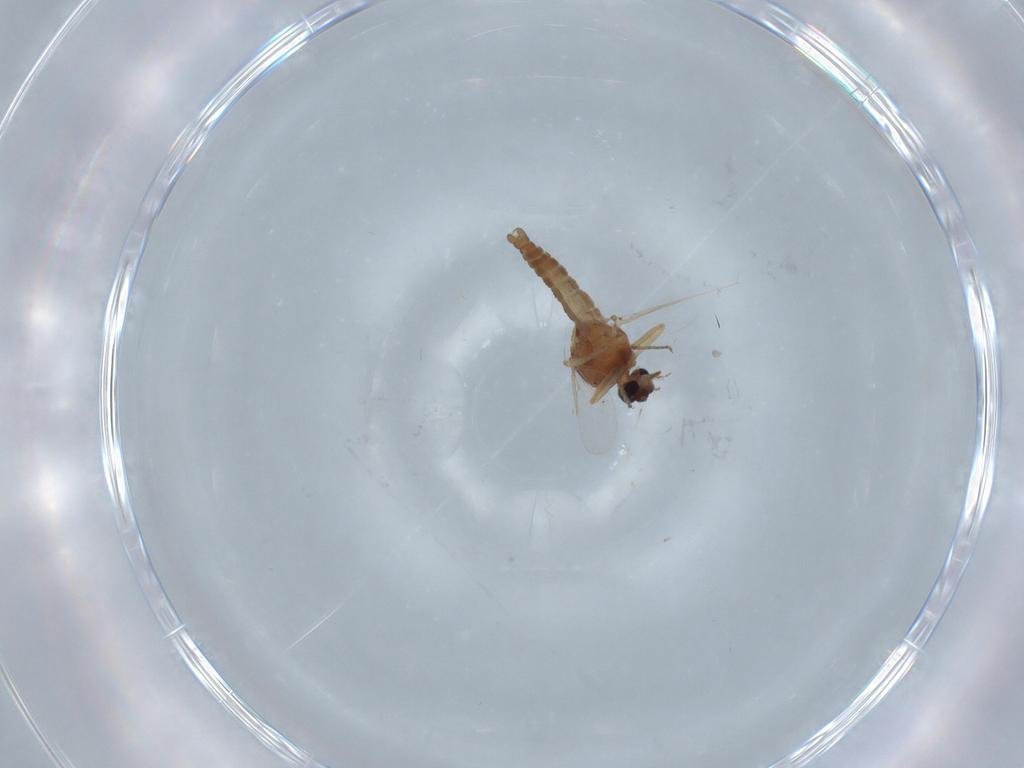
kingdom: Animalia
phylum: Arthropoda
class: Insecta
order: Diptera
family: Ceratopogonidae
